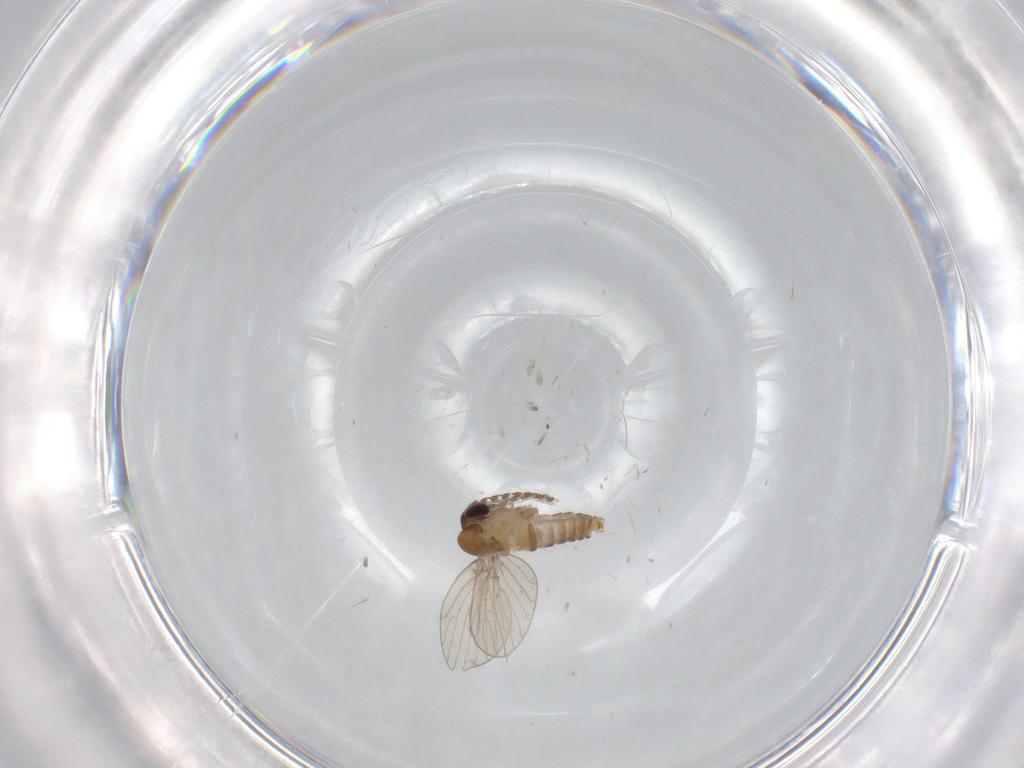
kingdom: Animalia
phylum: Arthropoda
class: Insecta
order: Diptera
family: Psychodidae
